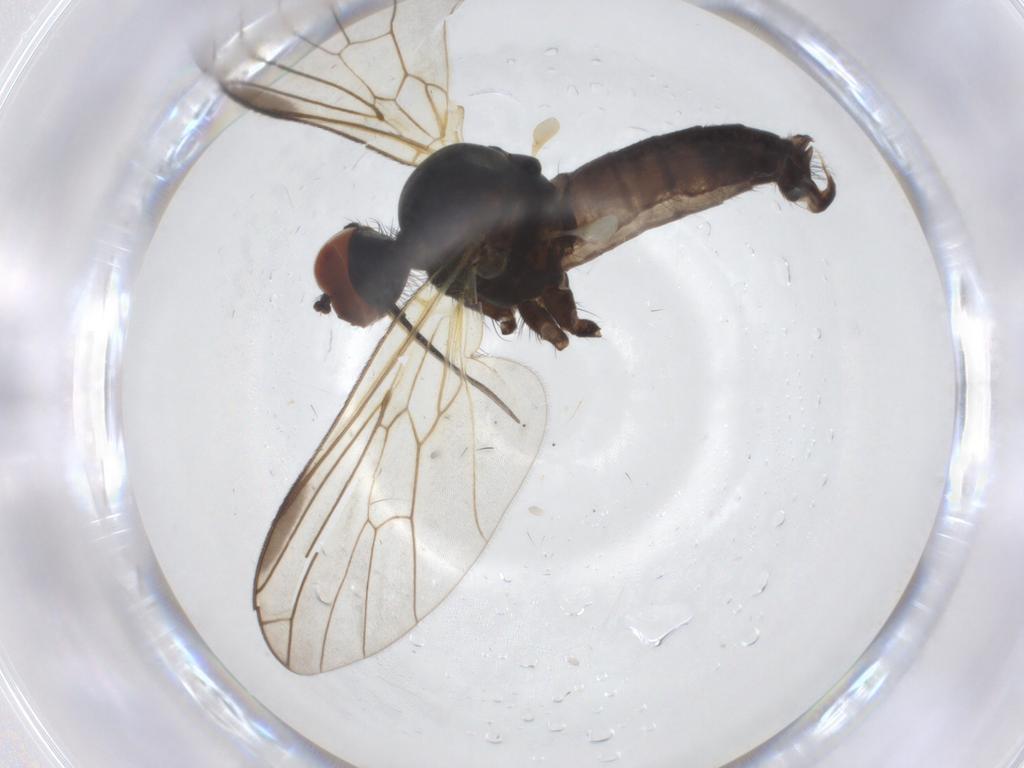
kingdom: Animalia
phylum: Arthropoda
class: Insecta
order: Diptera
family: Empididae
